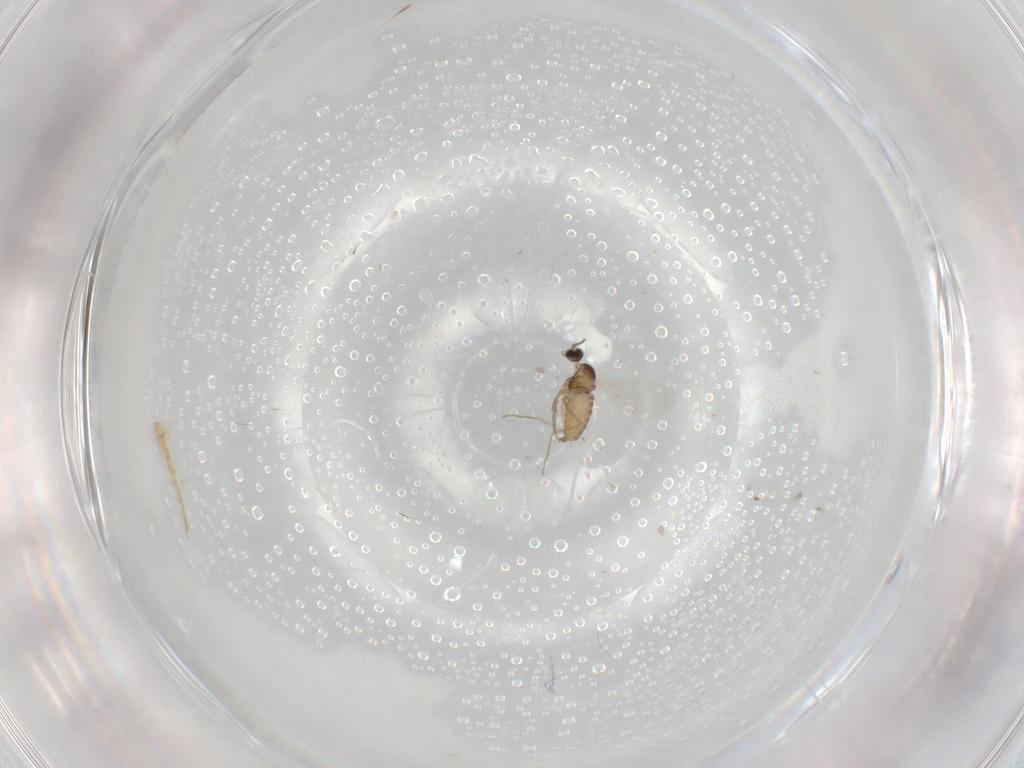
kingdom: Animalia
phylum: Arthropoda
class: Insecta
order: Diptera
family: Cecidomyiidae
